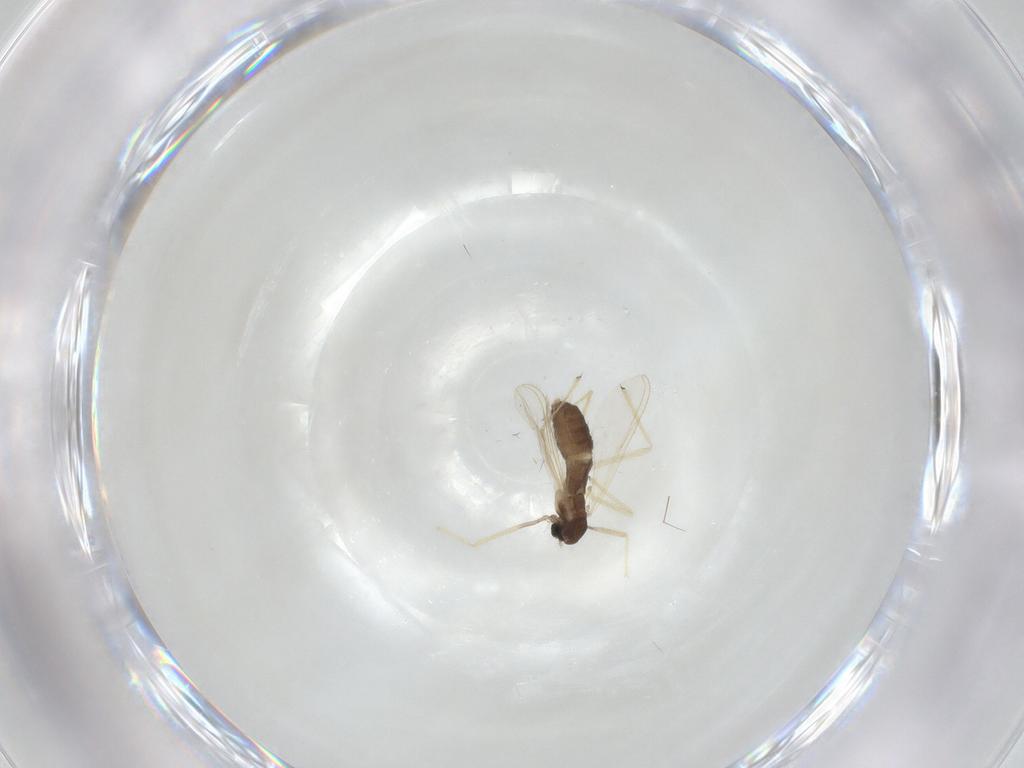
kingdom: Animalia
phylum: Arthropoda
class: Insecta
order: Diptera
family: Chironomidae
